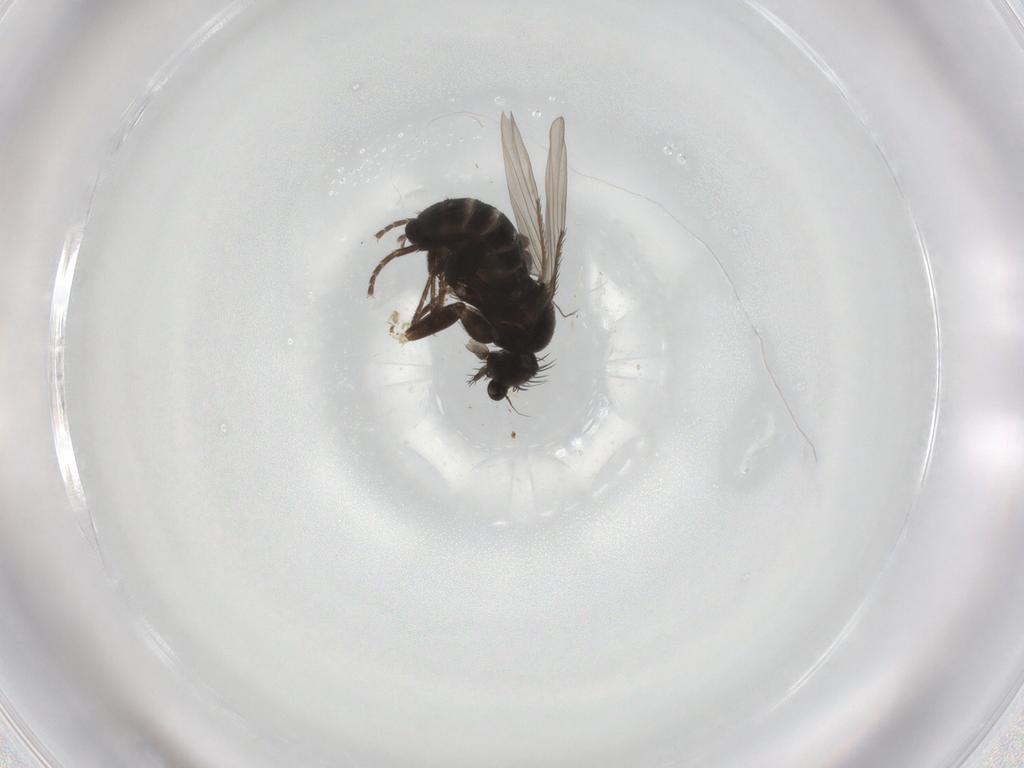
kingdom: Animalia
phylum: Arthropoda
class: Insecta
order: Diptera
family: Phoridae
